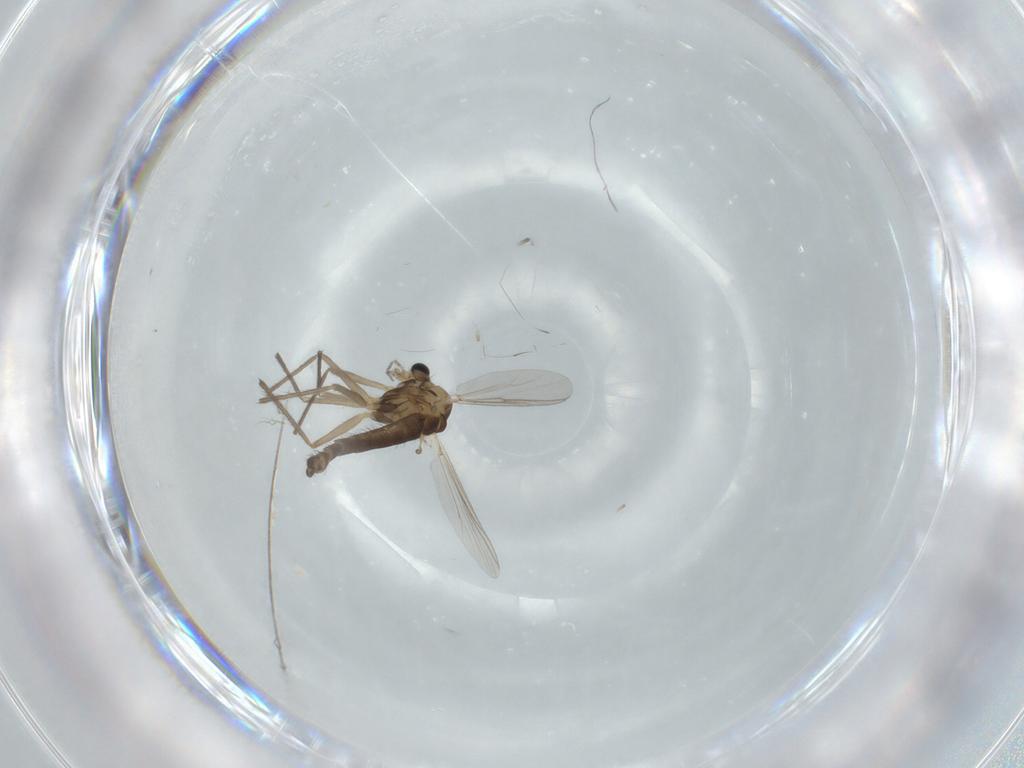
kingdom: Animalia
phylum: Arthropoda
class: Insecta
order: Diptera
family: Chironomidae
